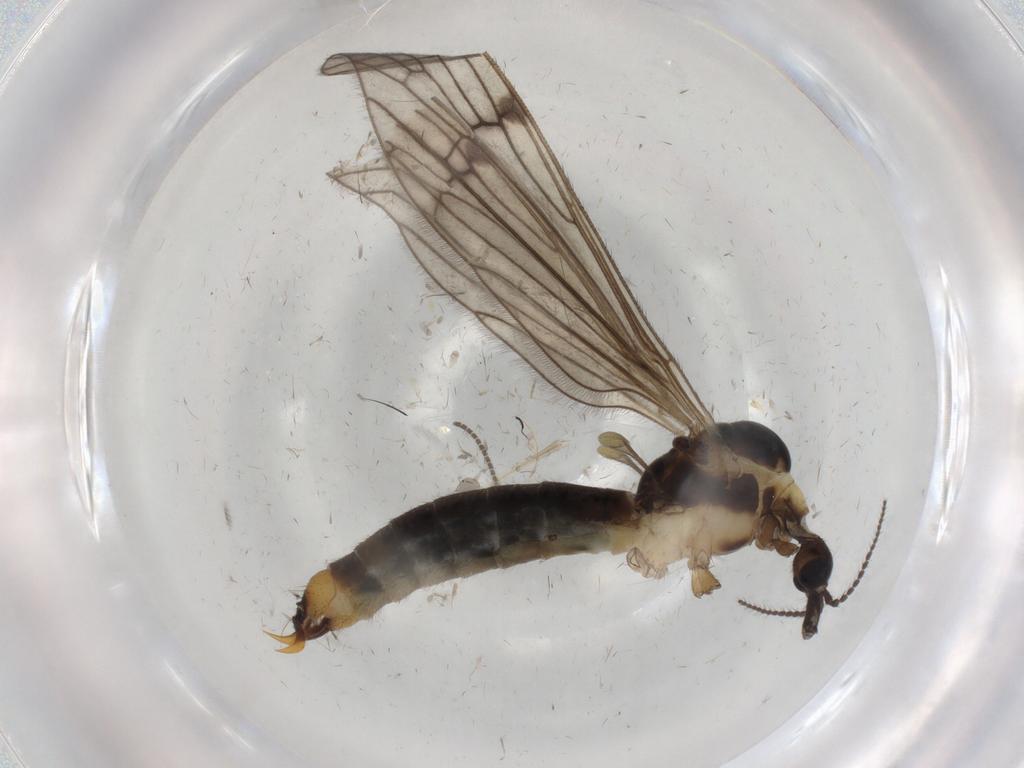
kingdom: Animalia
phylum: Arthropoda
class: Insecta
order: Diptera
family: Limoniidae
